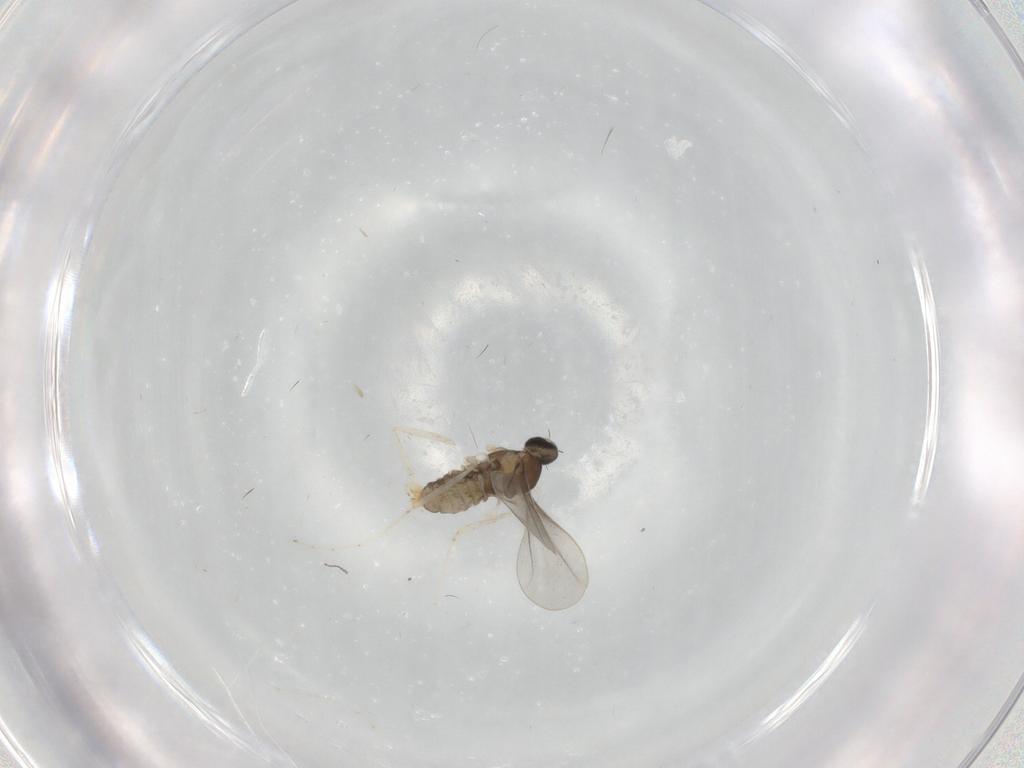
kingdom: Animalia
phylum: Arthropoda
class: Insecta
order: Diptera
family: Cecidomyiidae
